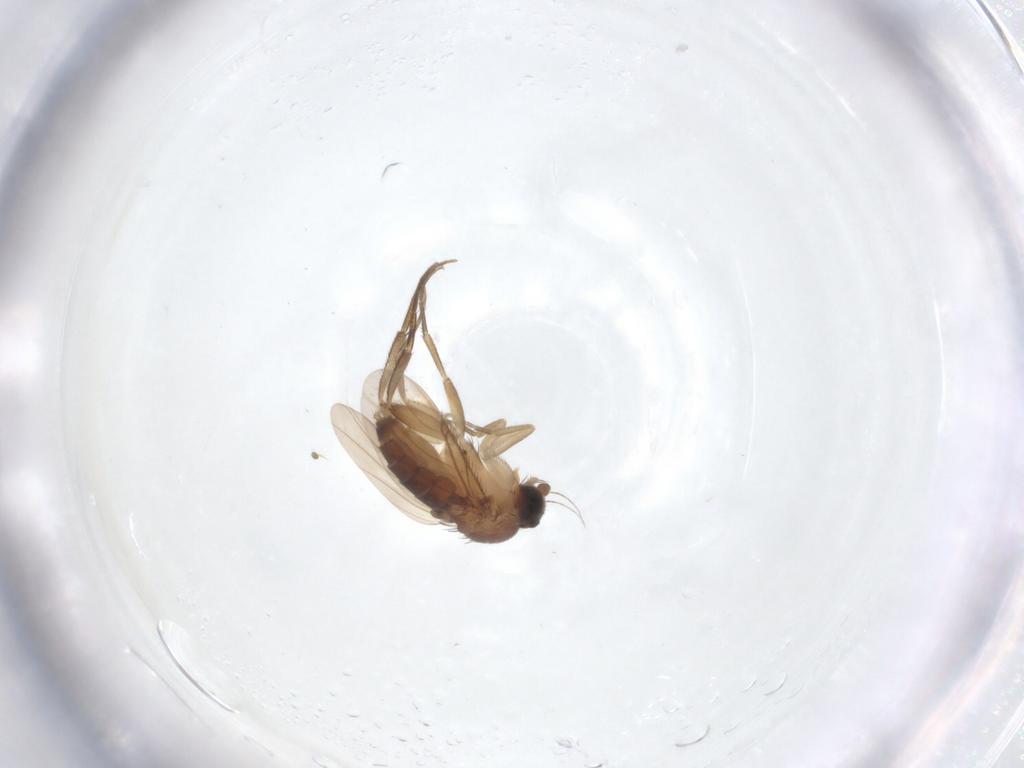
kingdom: Animalia
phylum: Arthropoda
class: Insecta
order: Diptera
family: Phoridae
